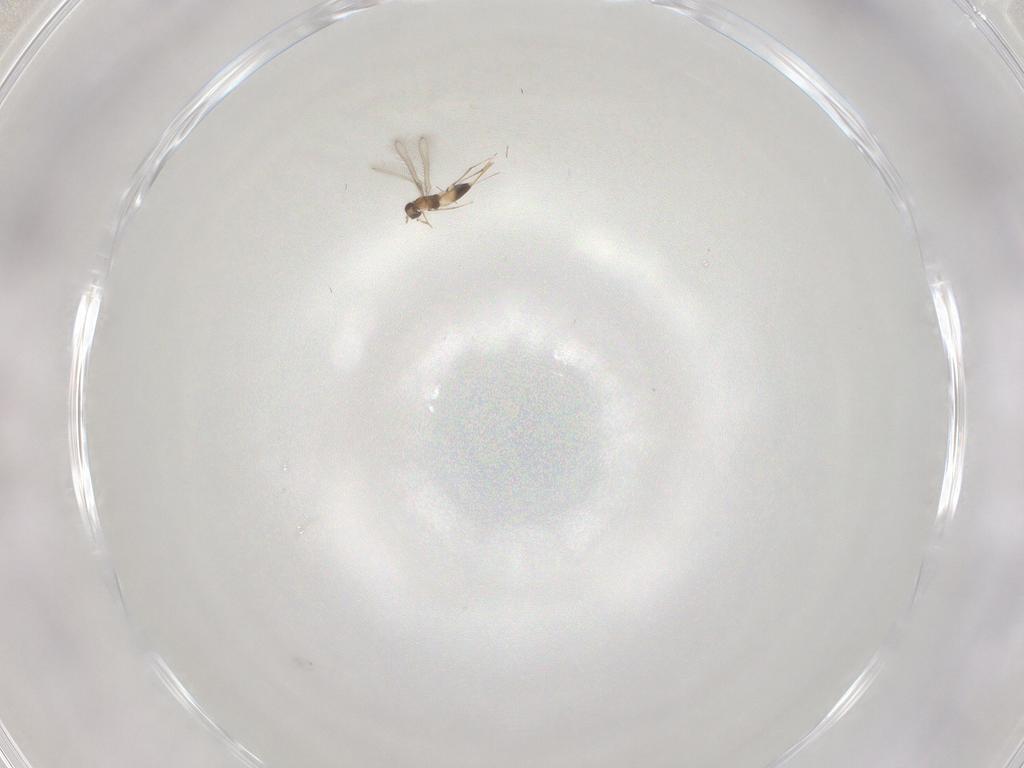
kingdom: Animalia
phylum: Arthropoda
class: Insecta
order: Hymenoptera
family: Mymaridae
